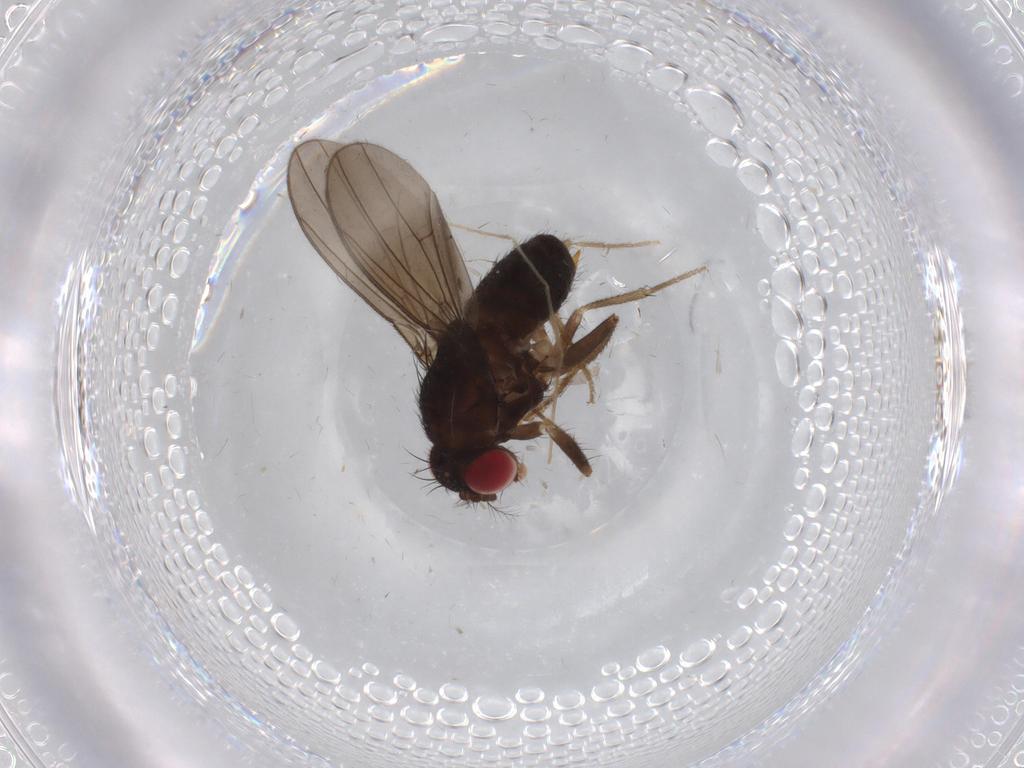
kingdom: Animalia
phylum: Arthropoda
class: Insecta
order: Diptera
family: Drosophilidae
